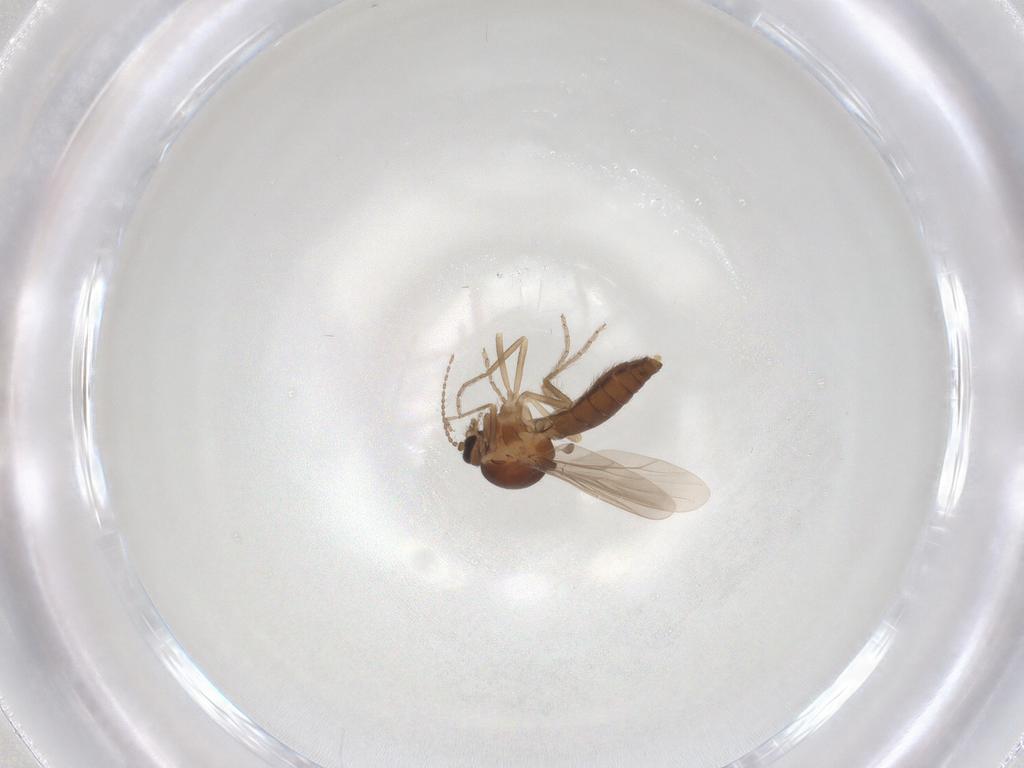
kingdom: Animalia
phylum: Arthropoda
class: Insecta
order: Diptera
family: Ceratopogonidae
